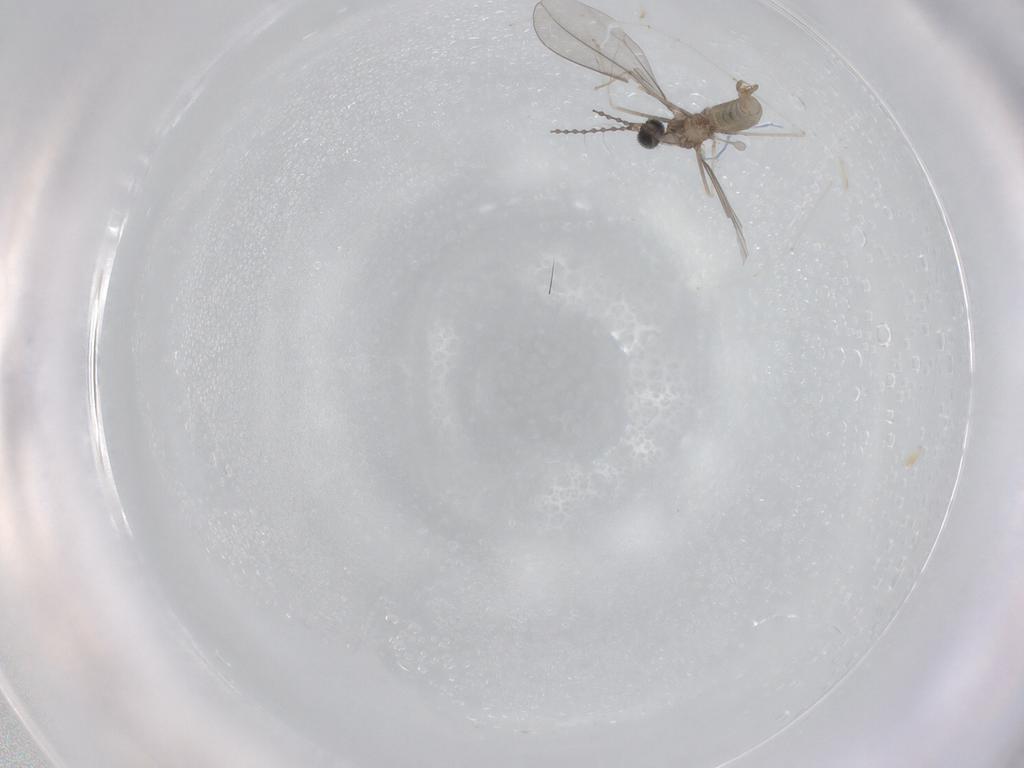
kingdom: Animalia
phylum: Arthropoda
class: Insecta
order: Diptera
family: Cecidomyiidae
